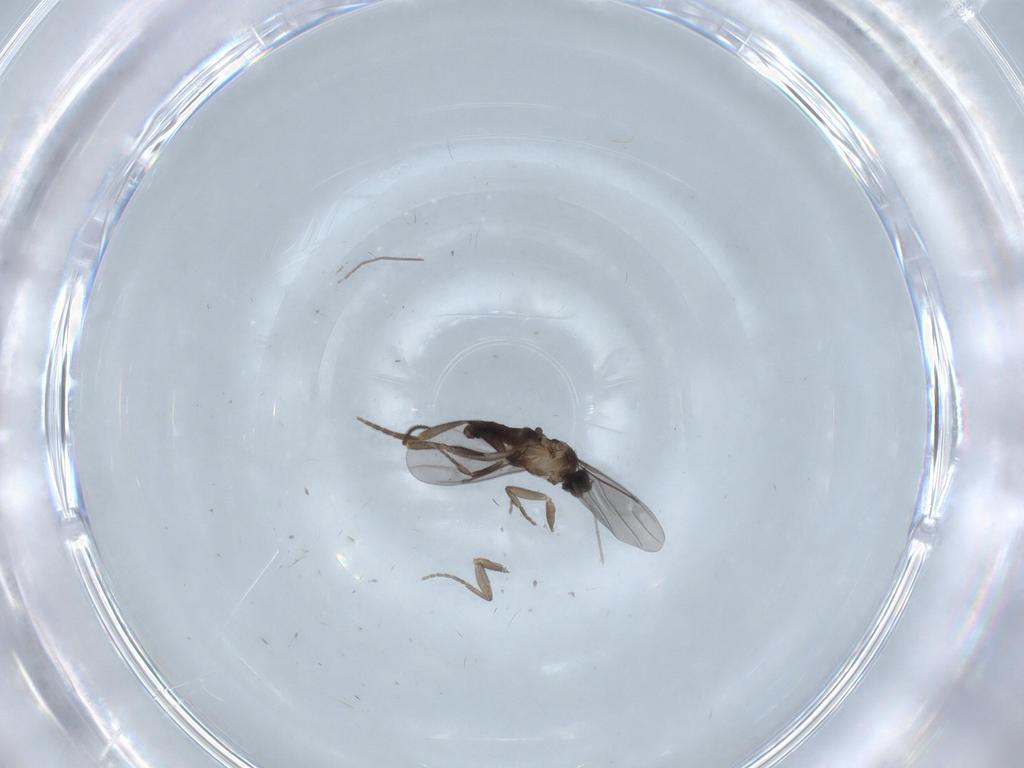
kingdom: Animalia
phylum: Arthropoda
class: Insecta
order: Diptera
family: Phoridae
